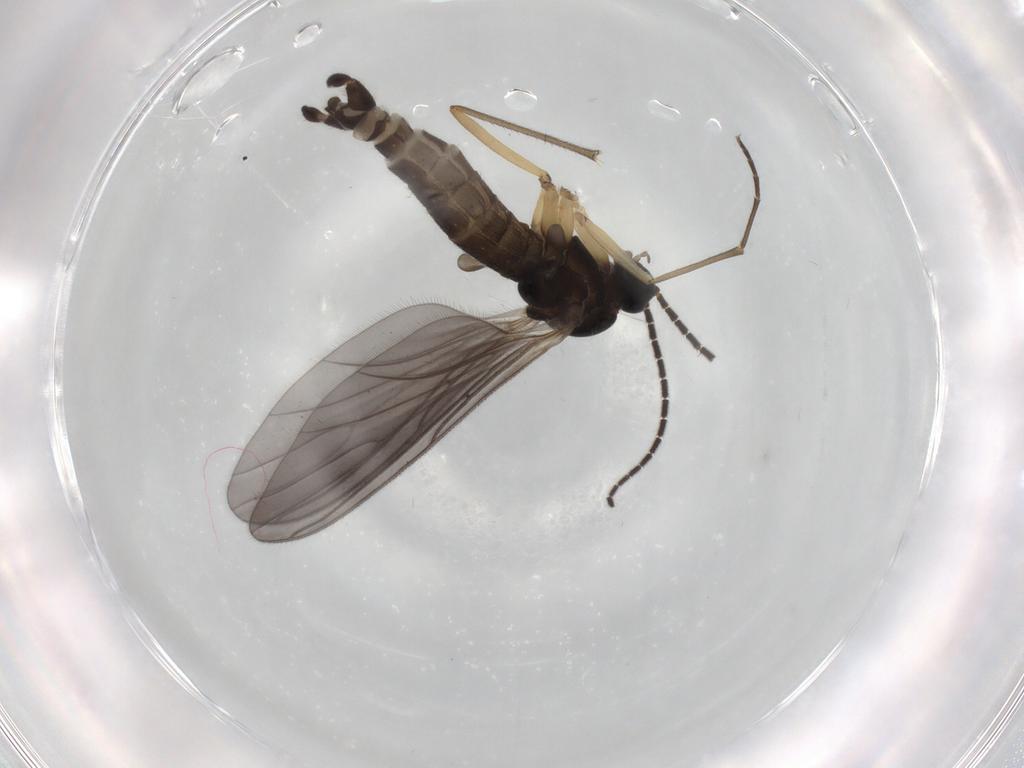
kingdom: Animalia
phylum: Arthropoda
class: Insecta
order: Diptera
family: Sciaridae
